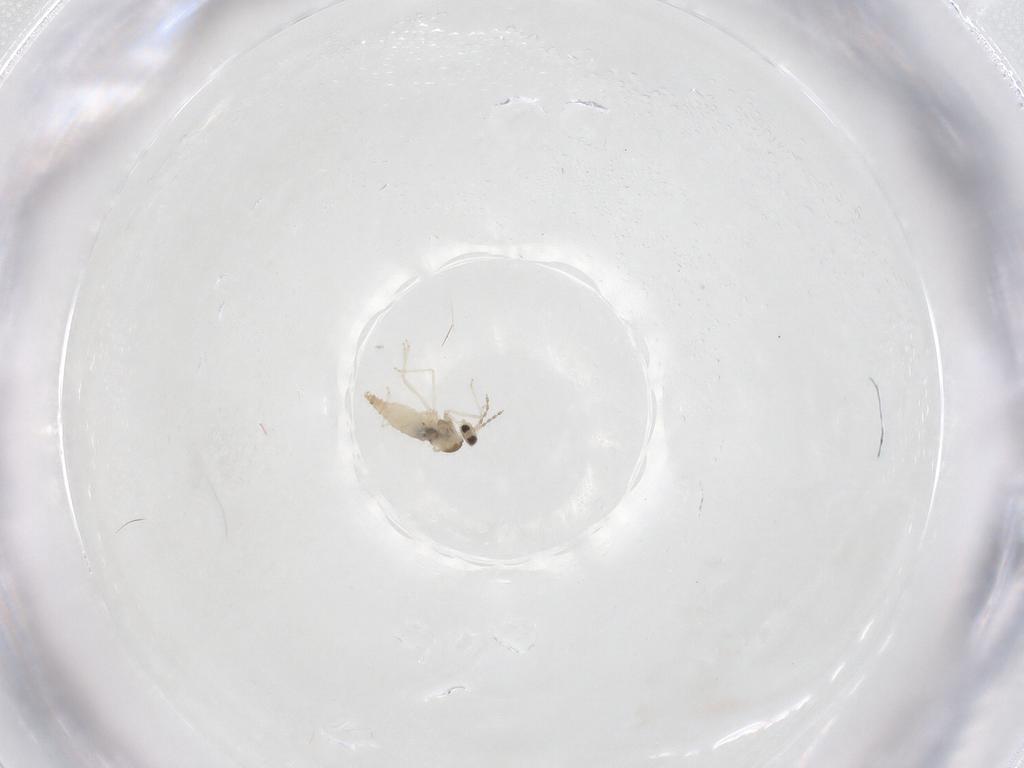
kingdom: Animalia
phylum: Arthropoda
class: Insecta
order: Diptera
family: Cecidomyiidae
